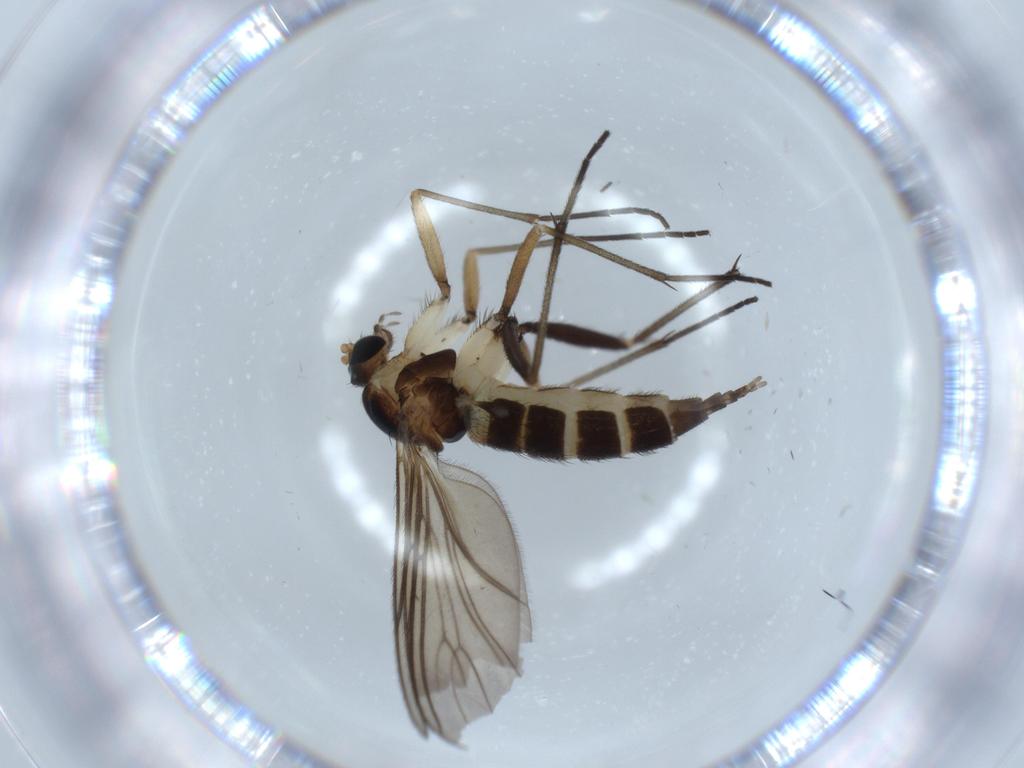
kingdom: Animalia
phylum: Arthropoda
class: Insecta
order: Diptera
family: Sciaridae
